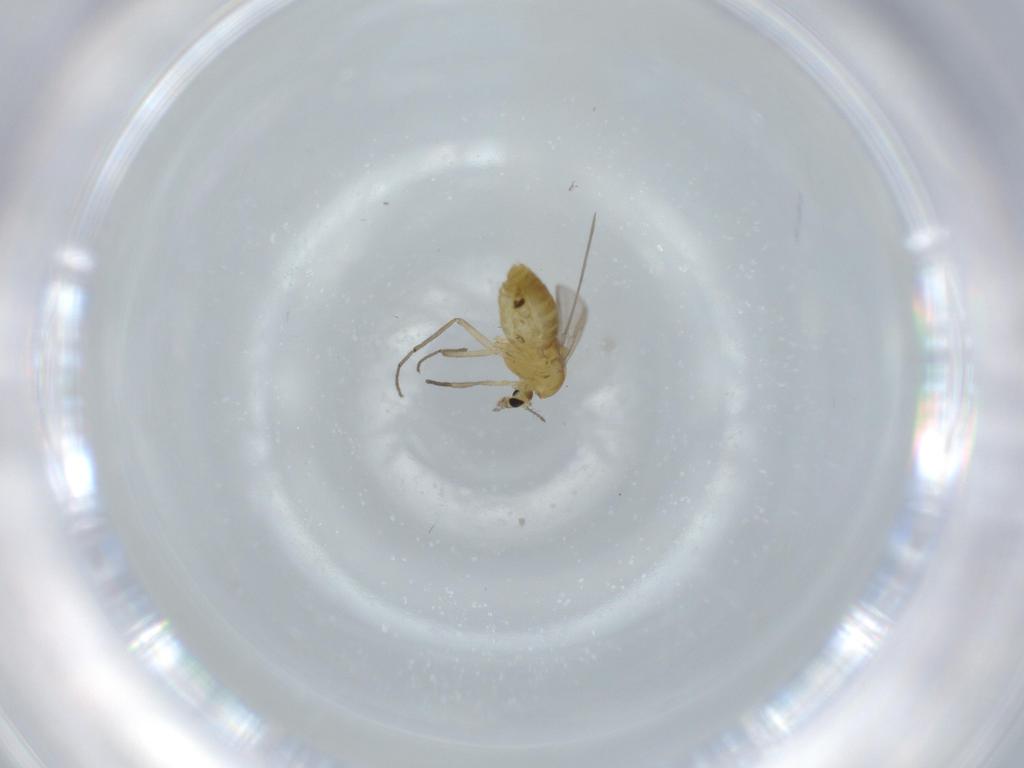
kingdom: Animalia
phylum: Arthropoda
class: Insecta
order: Diptera
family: Chironomidae
